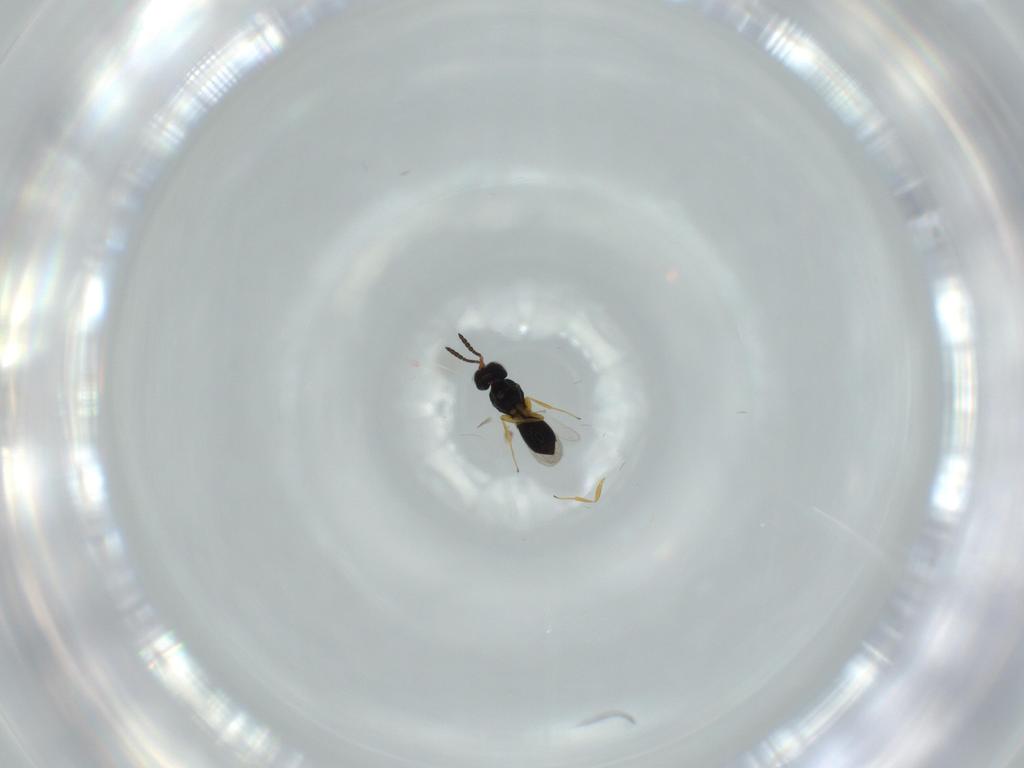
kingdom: Animalia
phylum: Arthropoda
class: Insecta
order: Hymenoptera
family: Scelionidae
